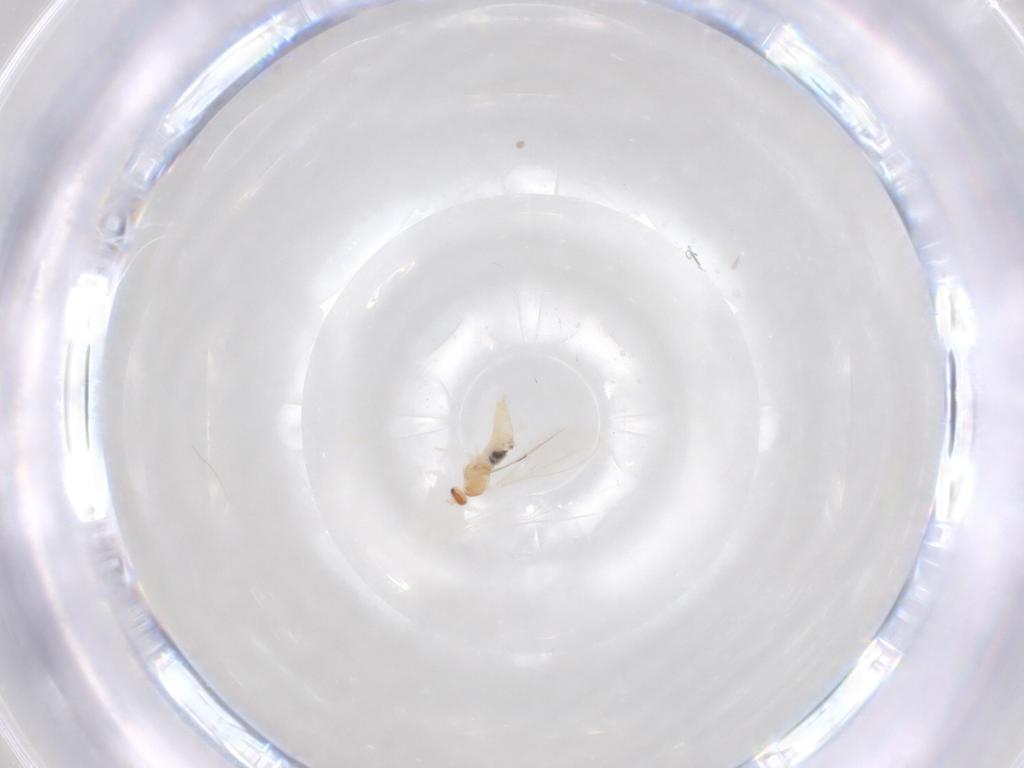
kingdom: Animalia
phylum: Arthropoda
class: Insecta
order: Diptera
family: Cecidomyiidae
